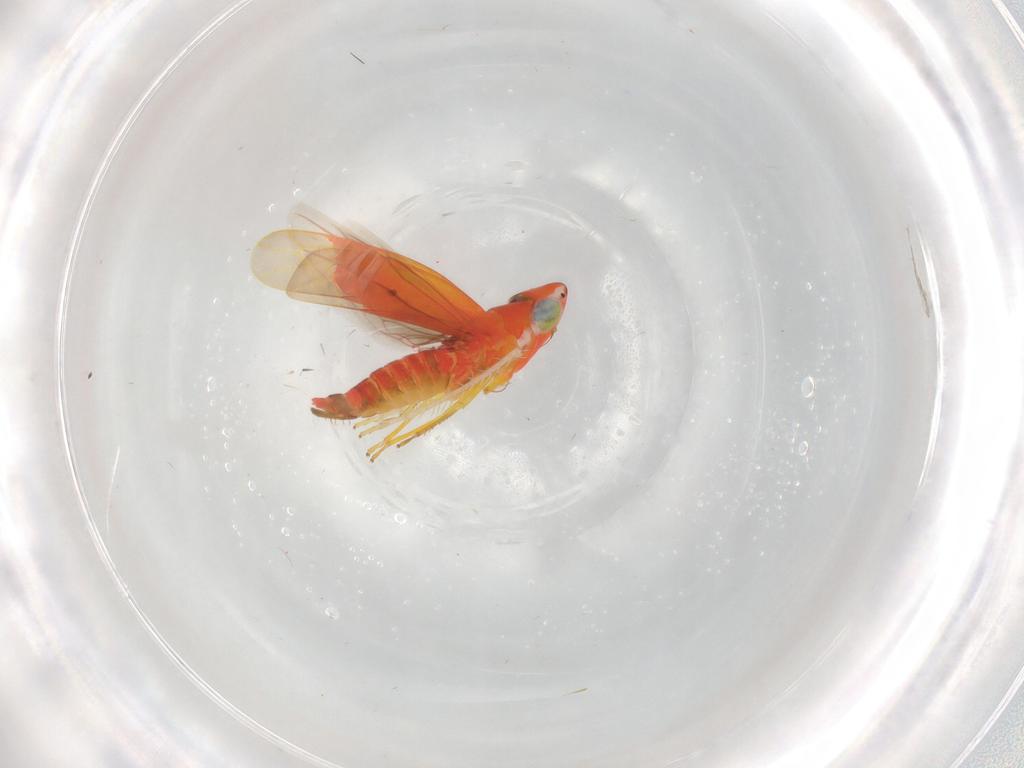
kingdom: Animalia
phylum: Arthropoda
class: Insecta
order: Hemiptera
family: Cicadellidae
